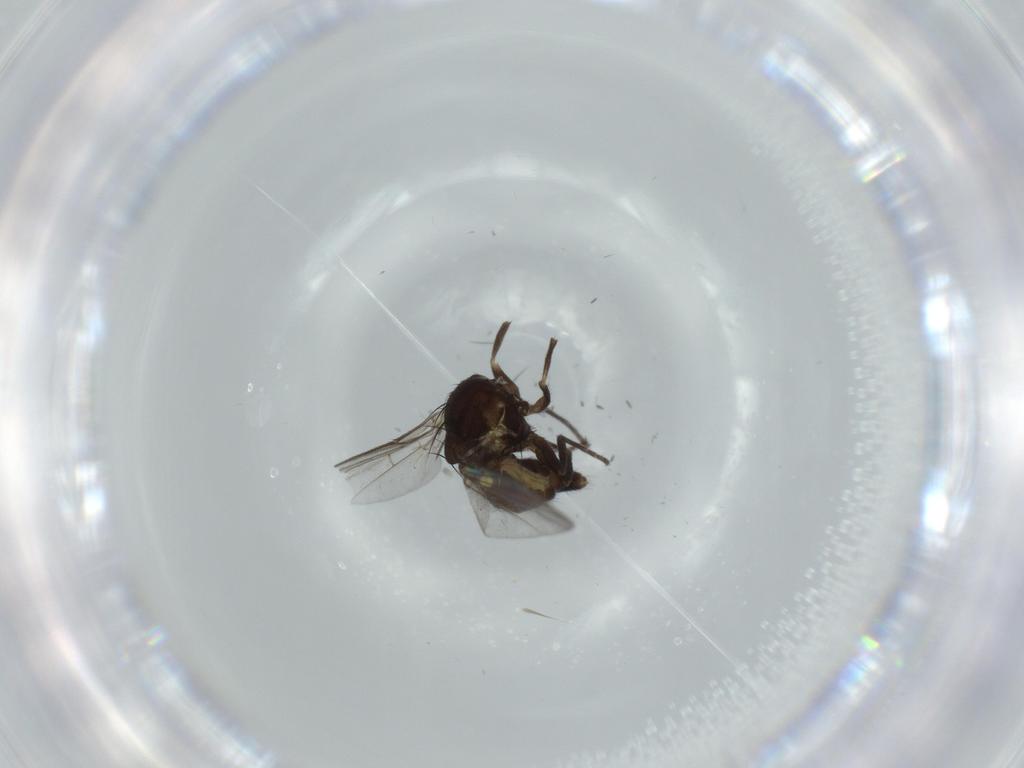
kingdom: Animalia
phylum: Arthropoda
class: Insecta
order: Diptera
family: Agromyzidae
